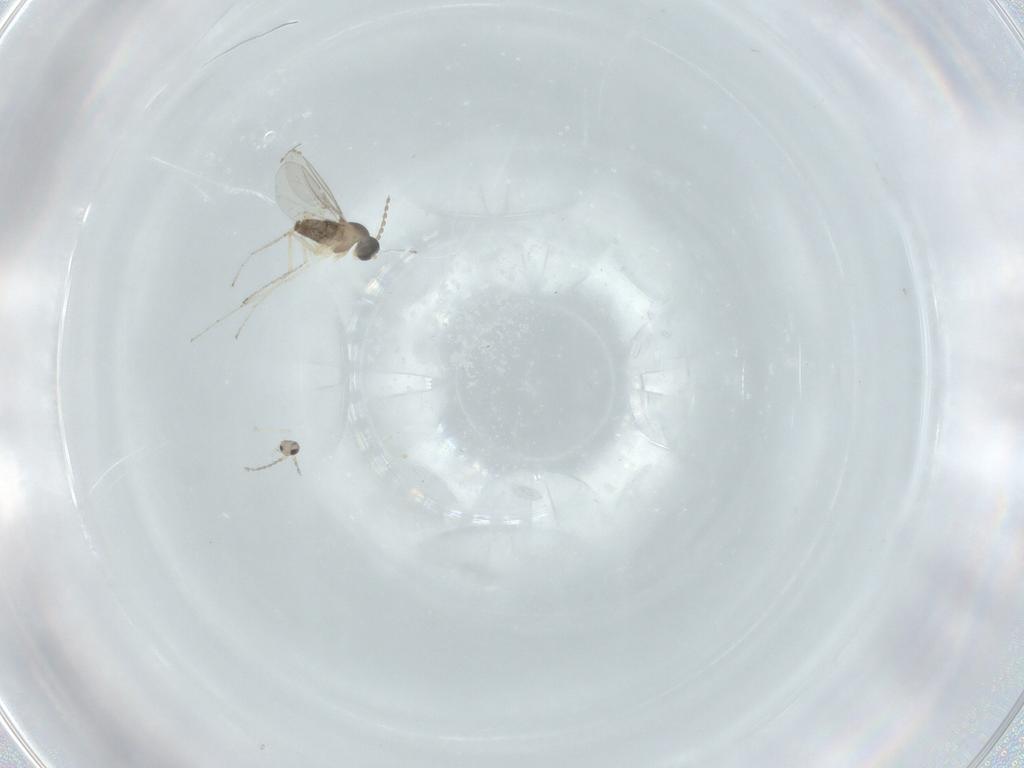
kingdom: Animalia
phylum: Arthropoda
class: Insecta
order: Diptera
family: Cecidomyiidae
